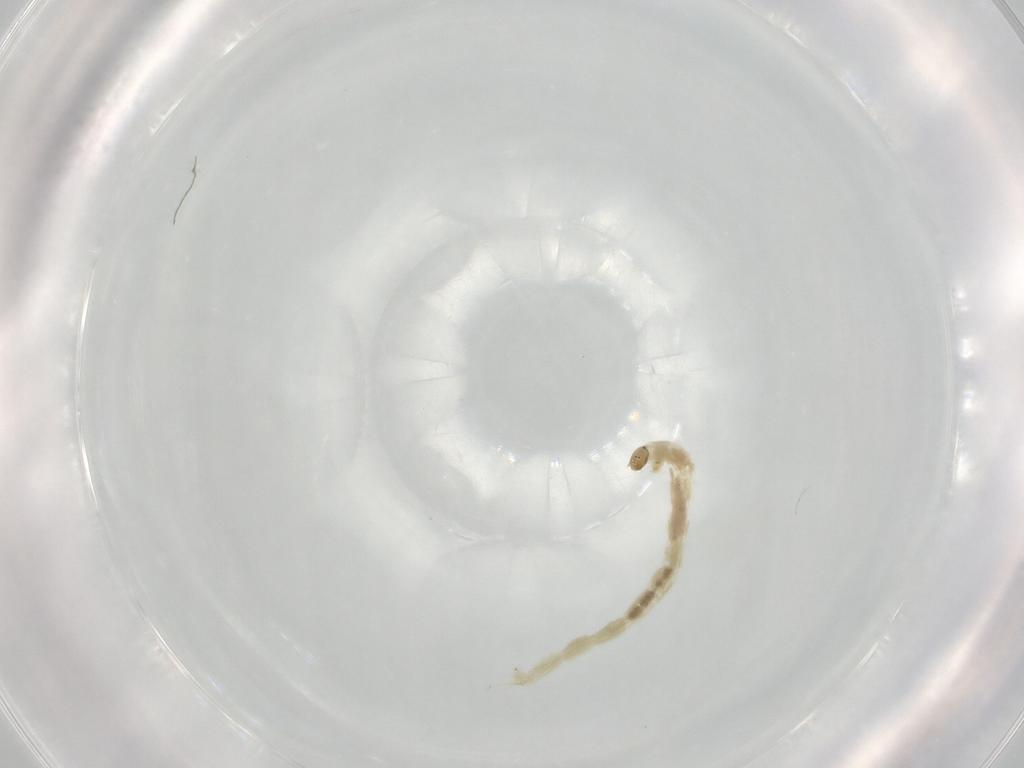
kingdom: Animalia
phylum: Arthropoda
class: Insecta
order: Diptera
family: Chironomidae
